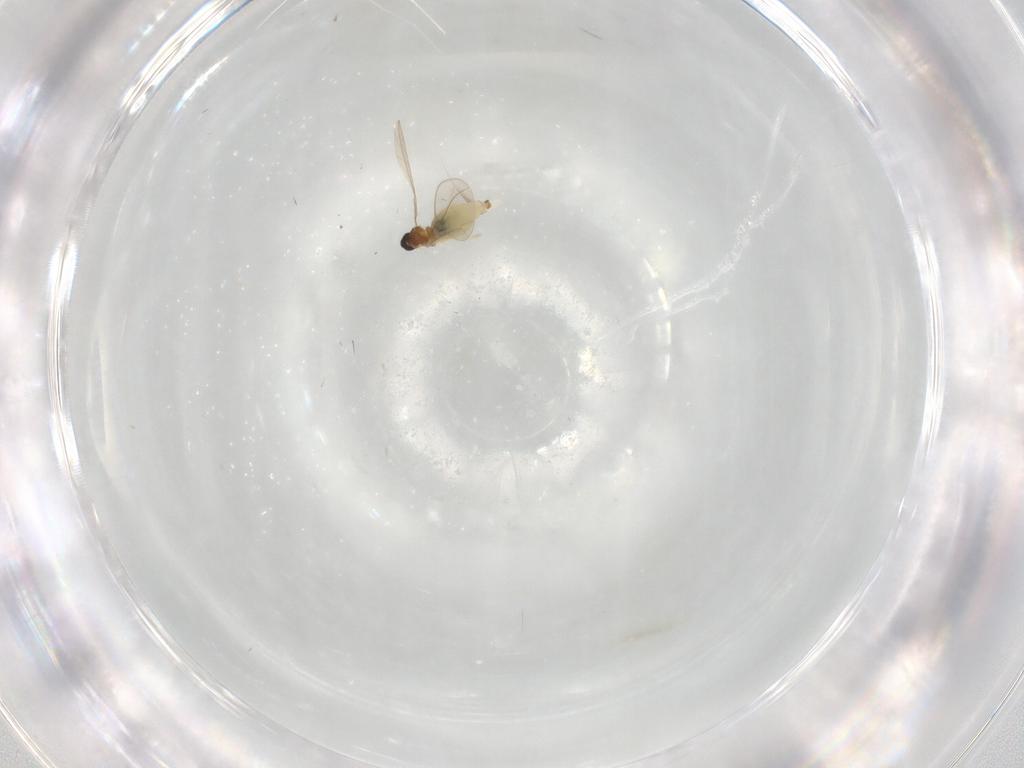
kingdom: Animalia
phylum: Arthropoda
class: Insecta
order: Diptera
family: Cecidomyiidae
